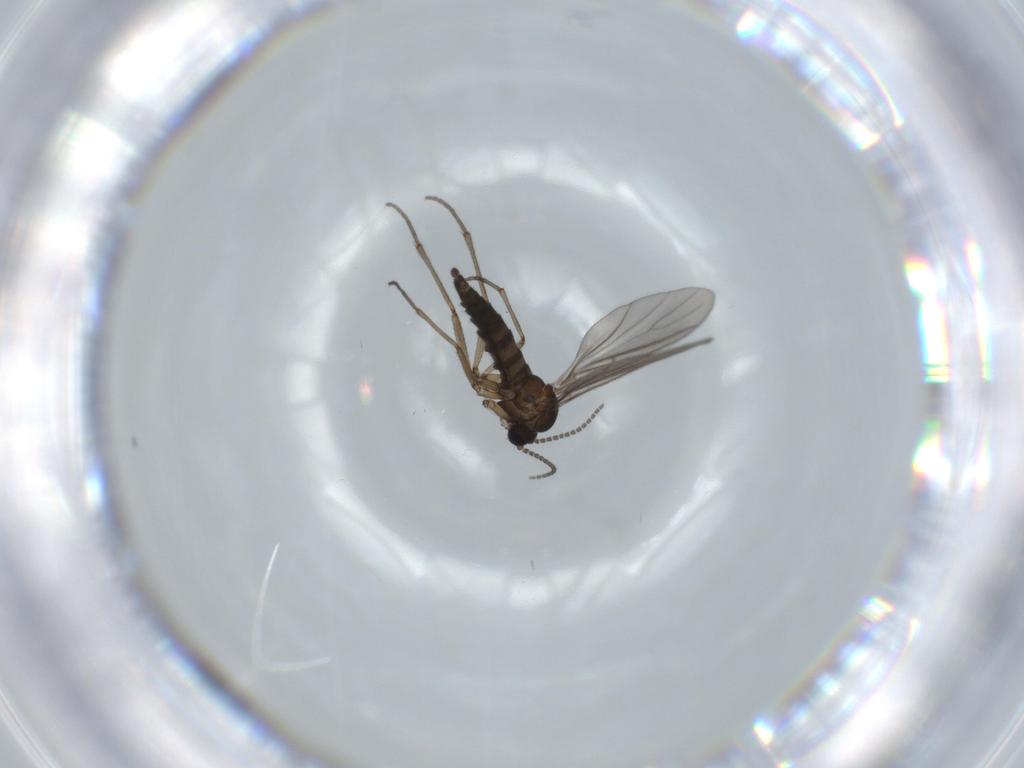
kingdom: Animalia
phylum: Arthropoda
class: Insecta
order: Diptera
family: Sciaridae
